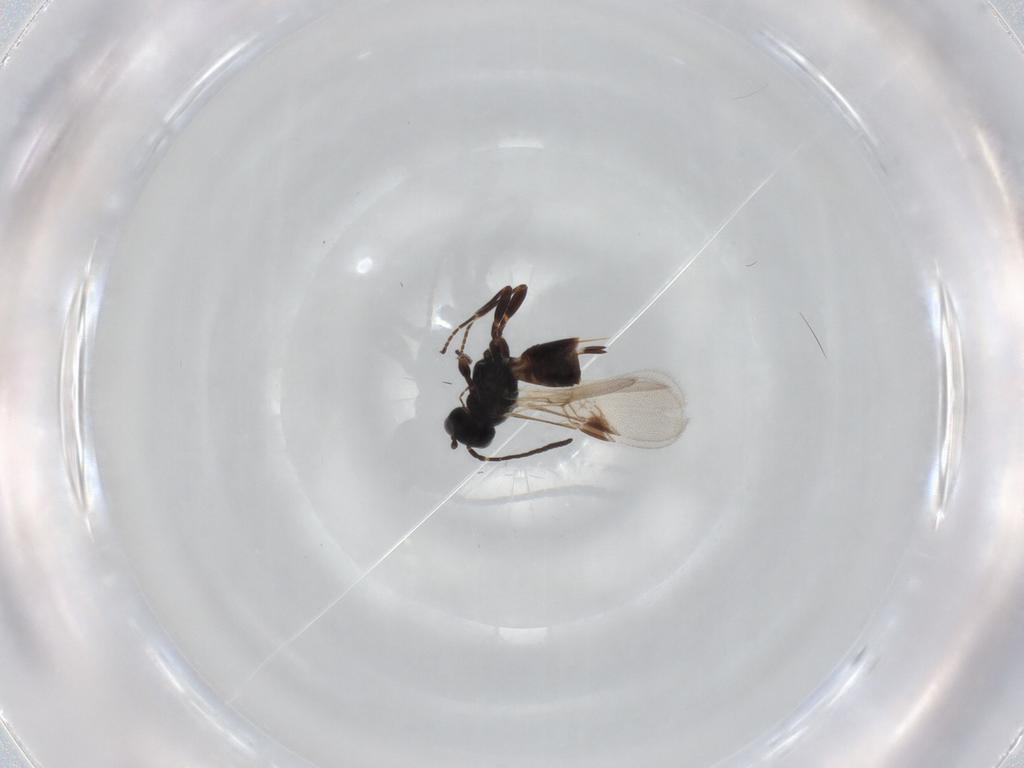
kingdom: Animalia
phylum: Arthropoda
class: Insecta
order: Hymenoptera
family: Braconidae
